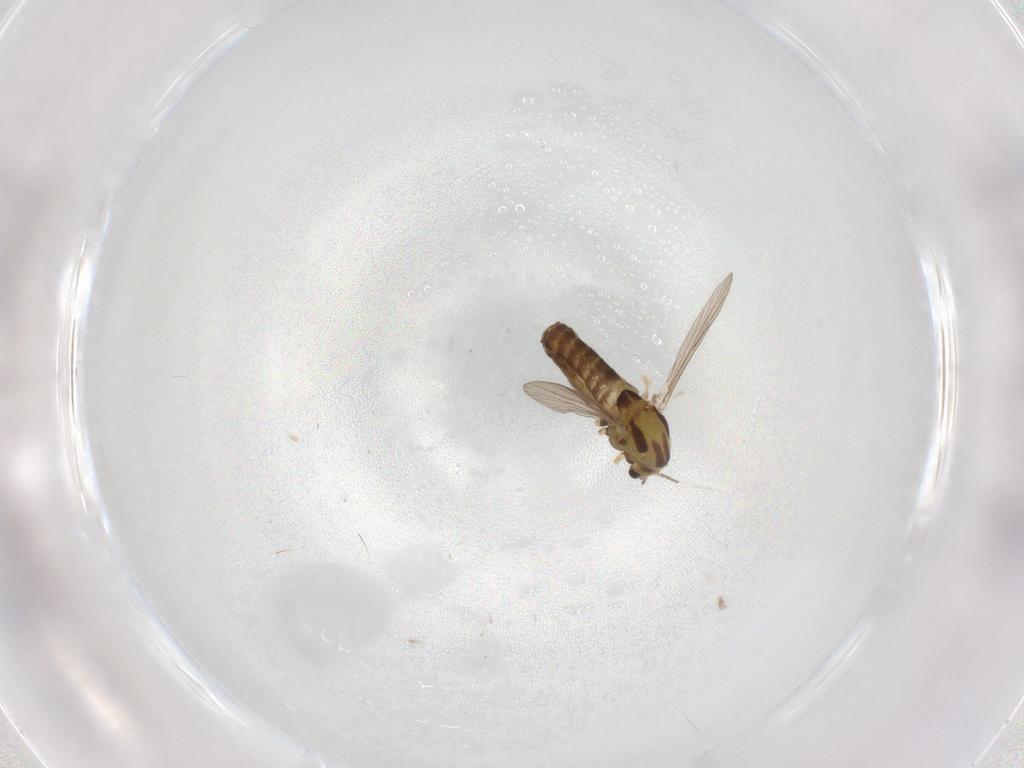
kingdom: Animalia
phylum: Arthropoda
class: Insecta
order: Diptera
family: Chironomidae
